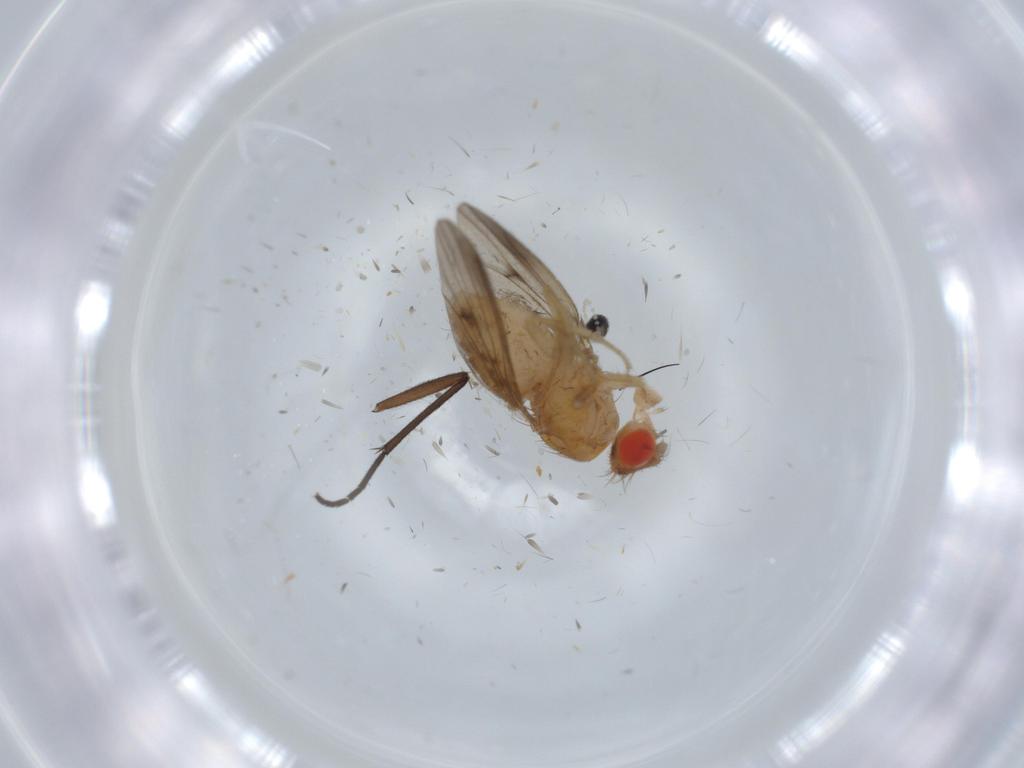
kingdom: Animalia
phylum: Arthropoda
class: Insecta
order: Diptera
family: Drosophilidae
